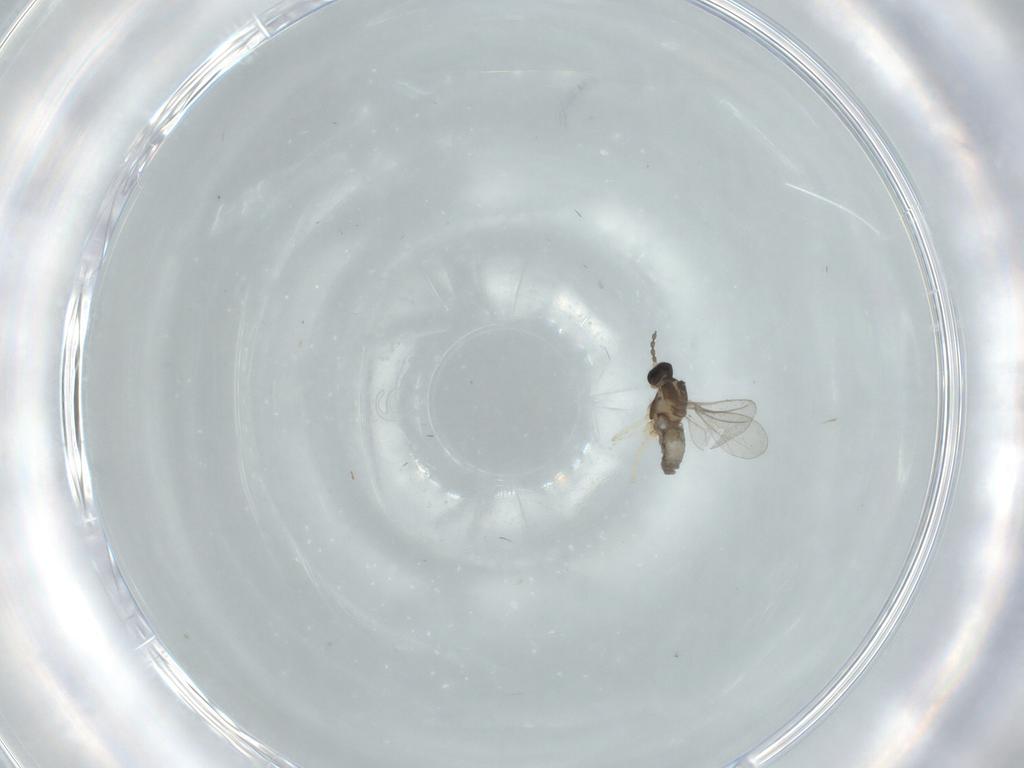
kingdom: Animalia
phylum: Arthropoda
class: Insecta
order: Diptera
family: Cecidomyiidae
